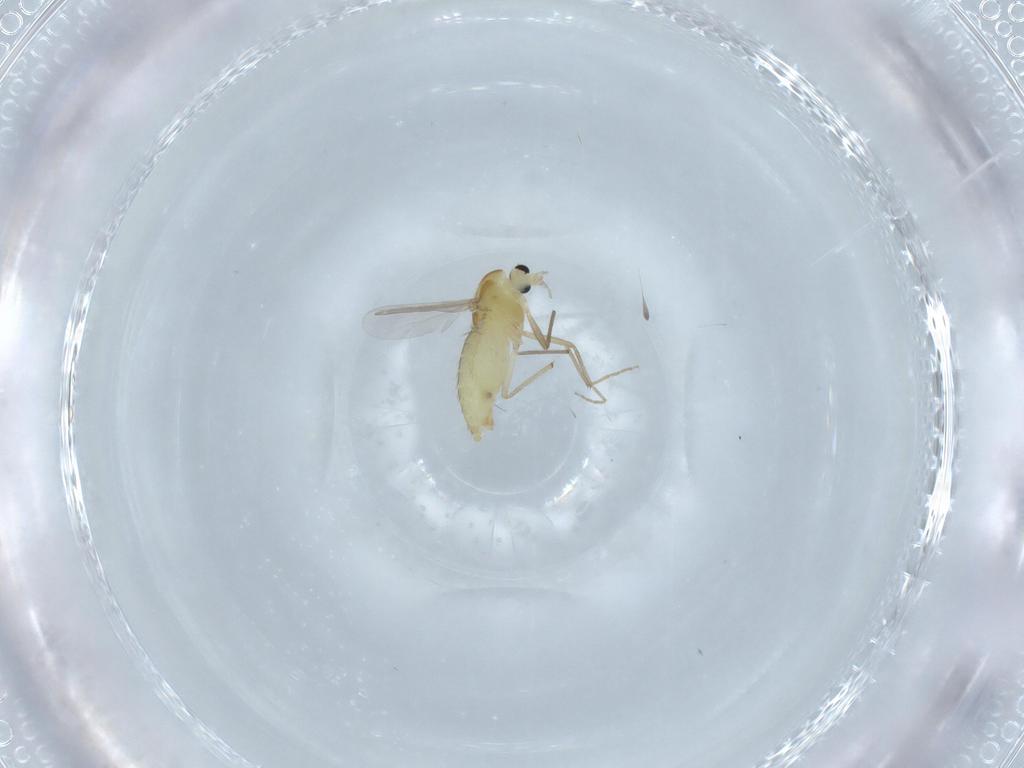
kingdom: Animalia
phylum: Arthropoda
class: Insecta
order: Diptera
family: Chironomidae
